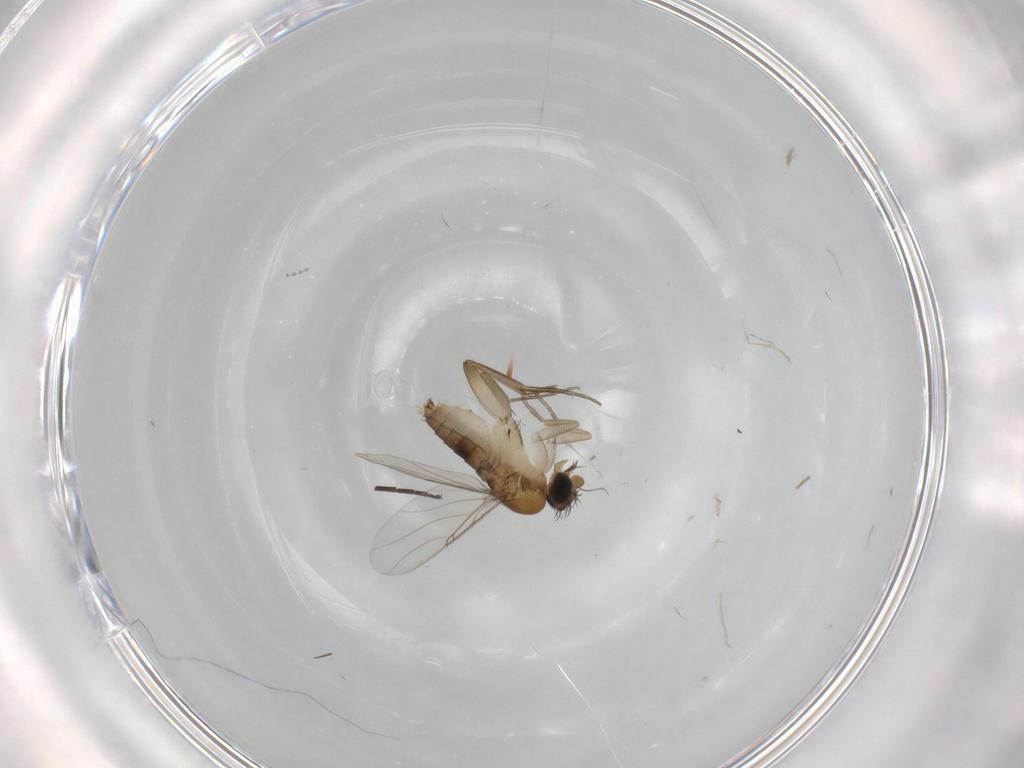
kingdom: Animalia
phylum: Arthropoda
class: Insecta
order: Diptera
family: Phoridae
